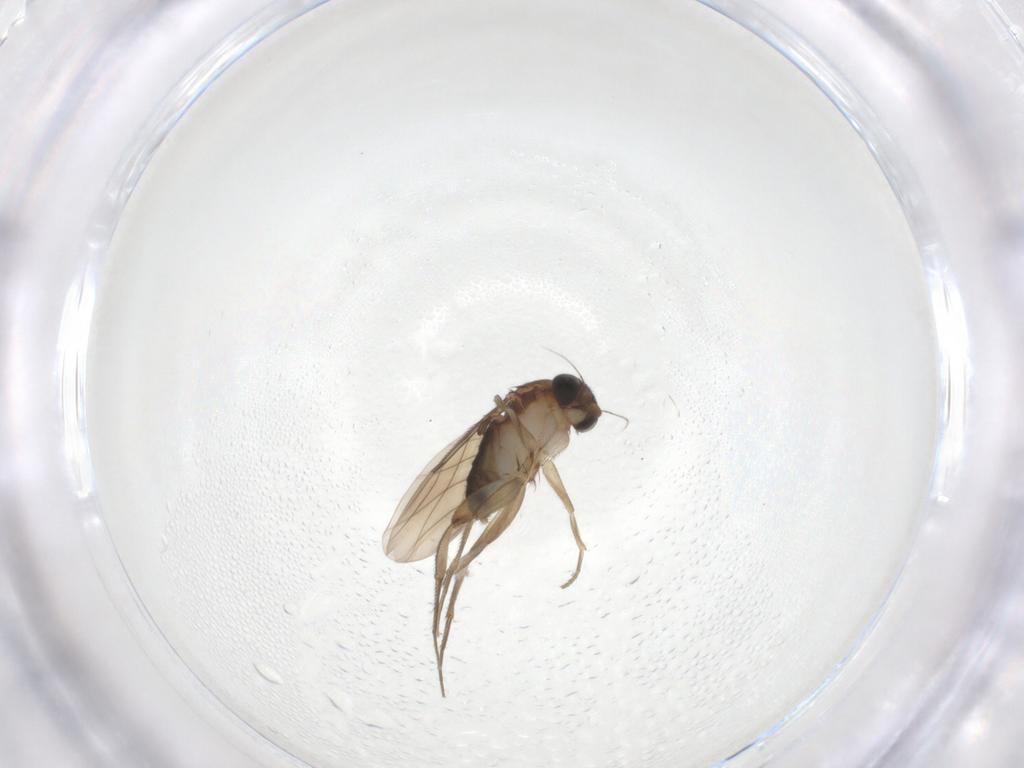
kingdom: Animalia
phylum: Arthropoda
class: Insecta
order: Diptera
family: Phoridae
